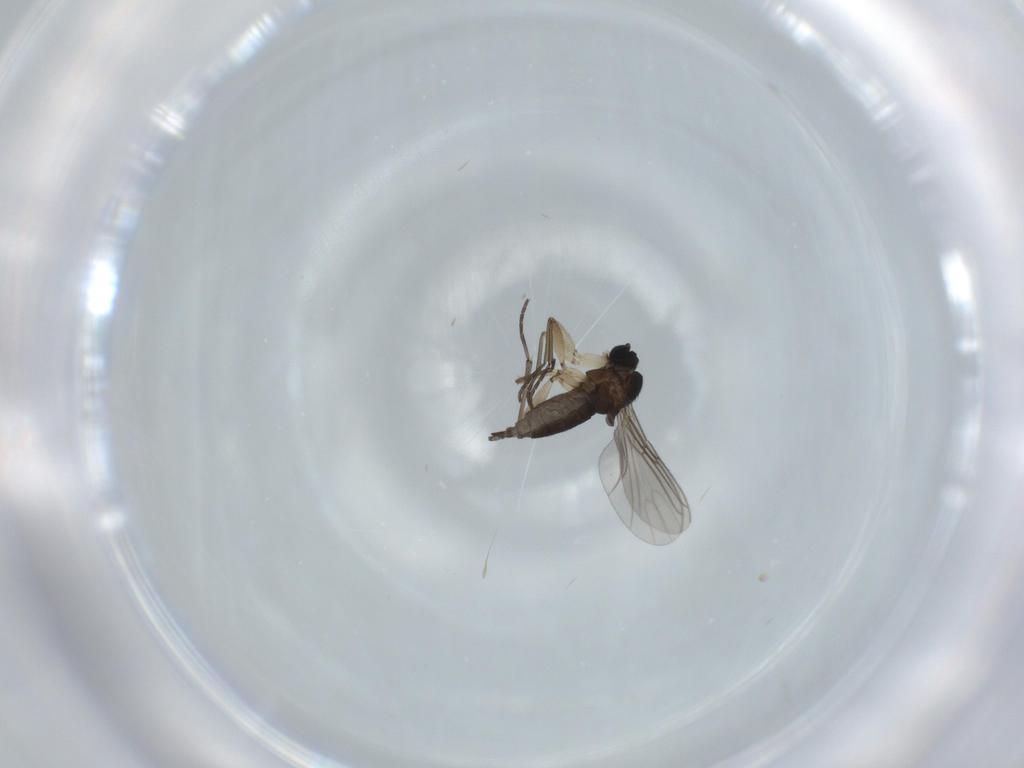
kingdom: Animalia
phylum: Arthropoda
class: Insecta
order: Diptera
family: Sciaridae
